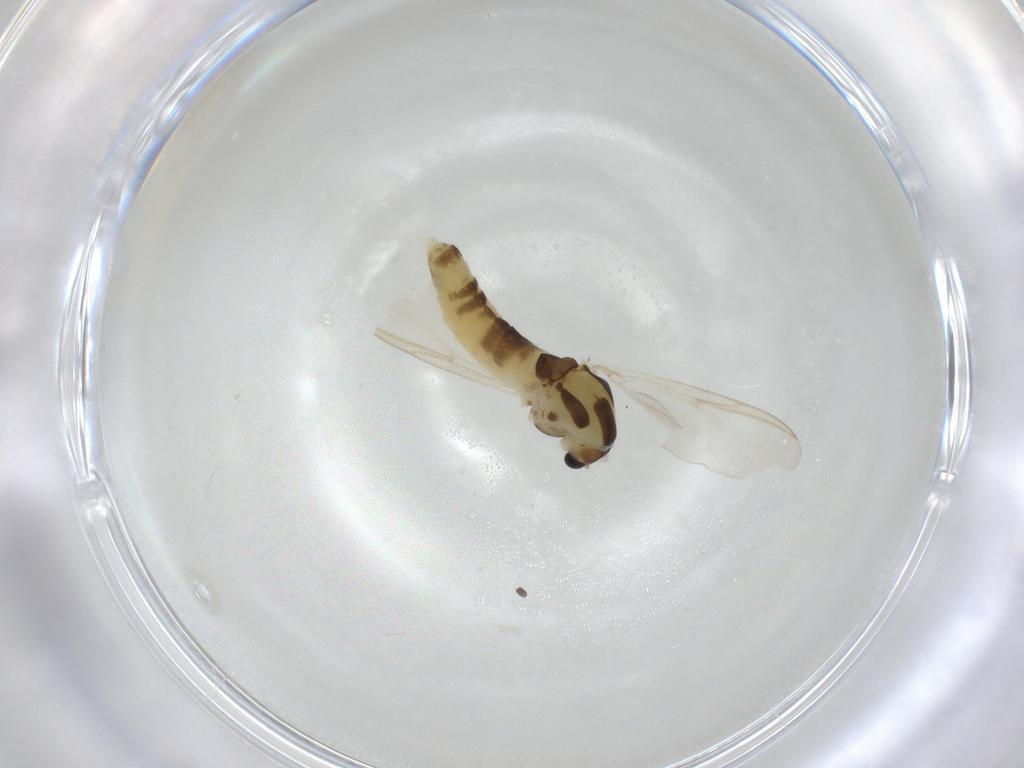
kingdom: Animalia
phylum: Arthropoda
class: Insecta
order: Diptera
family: Chironomidae
